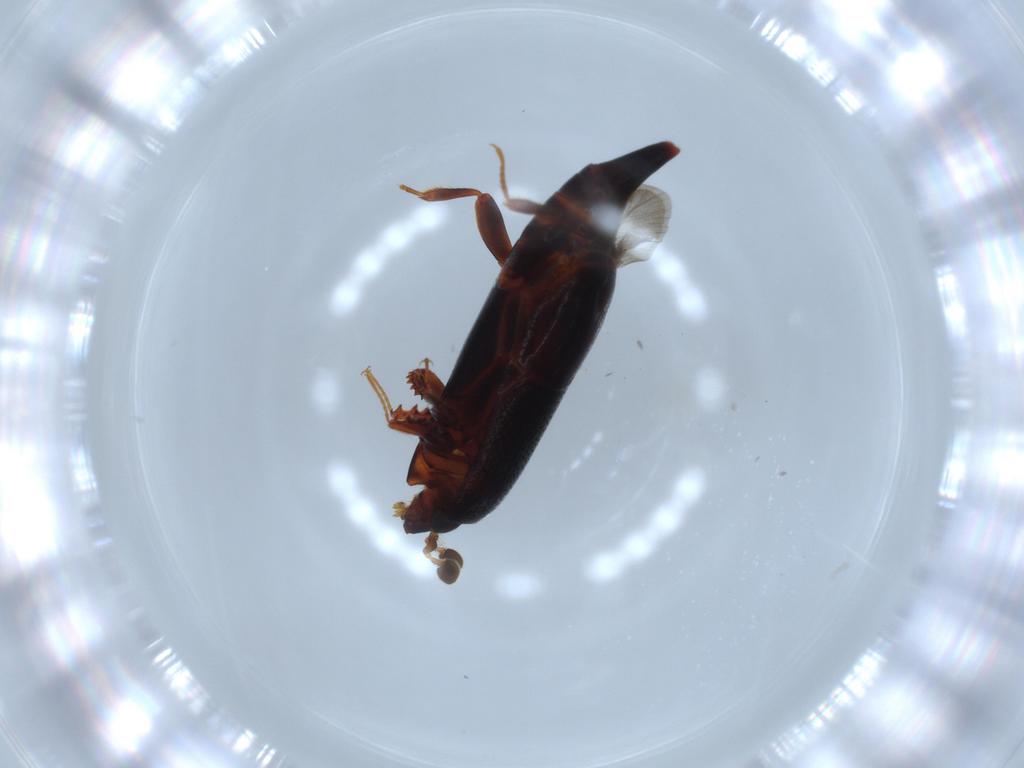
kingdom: Animalia
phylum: Arthropoda
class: Insecta
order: Coleoptera
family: Histeridae
